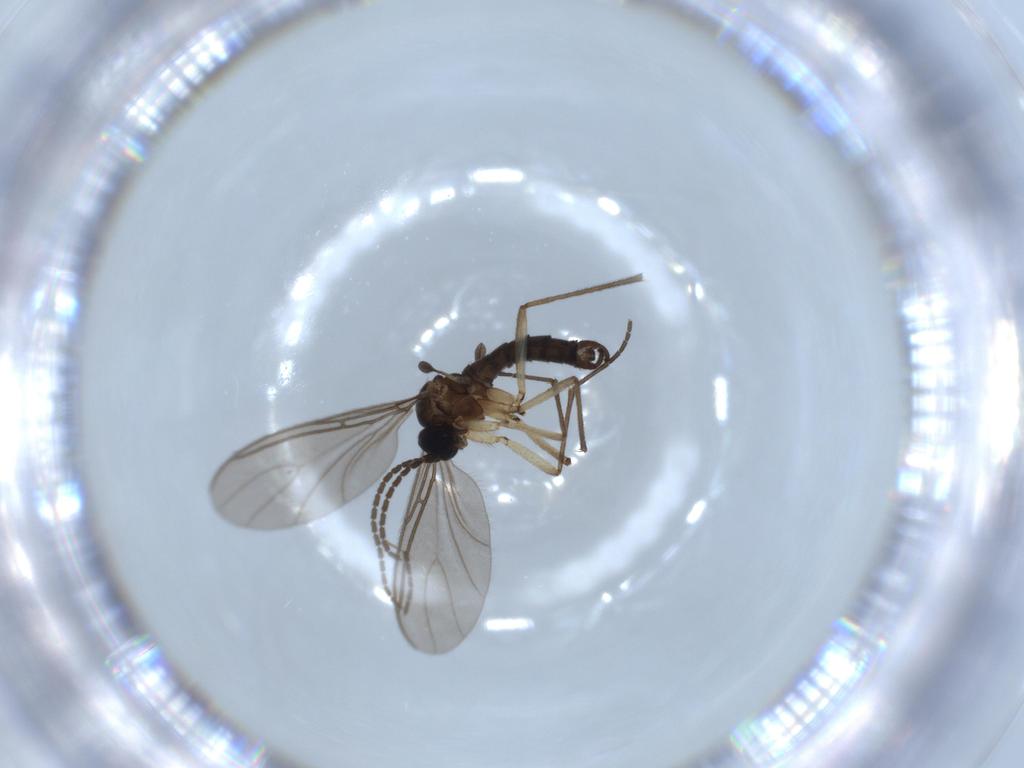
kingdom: Animalia
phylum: Arthropoda
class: Insecta
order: Diptera
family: Sciaridae
